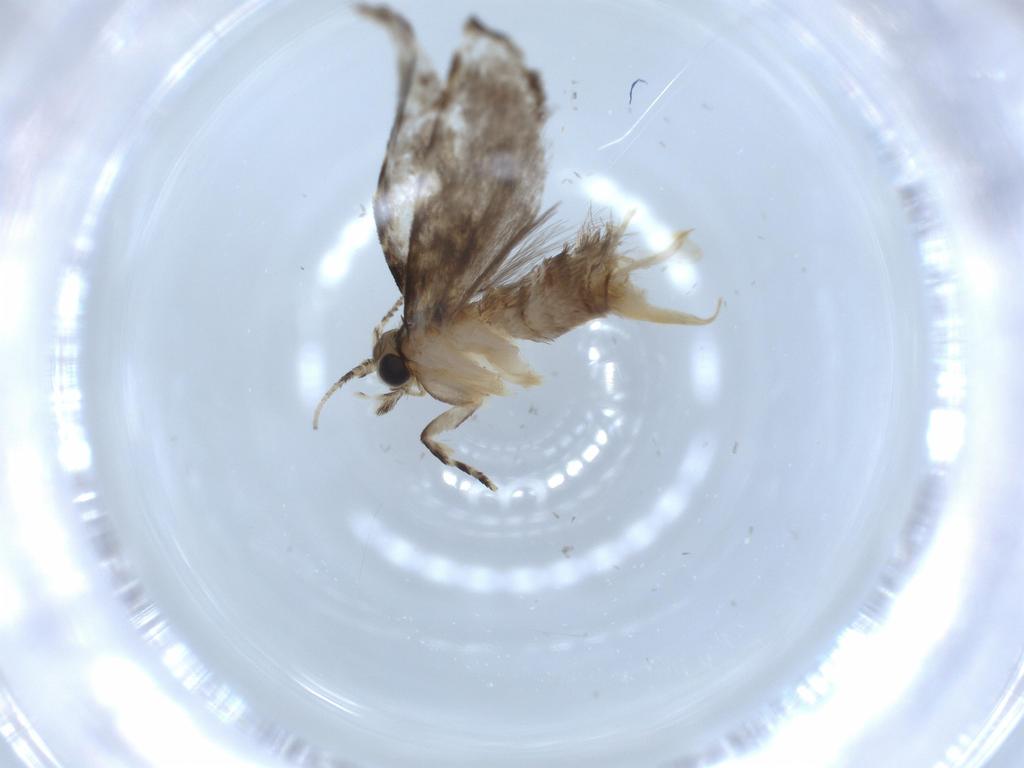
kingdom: Animalia
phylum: Arthropoda
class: Insecta
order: Lepidoptera
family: Tineidae
